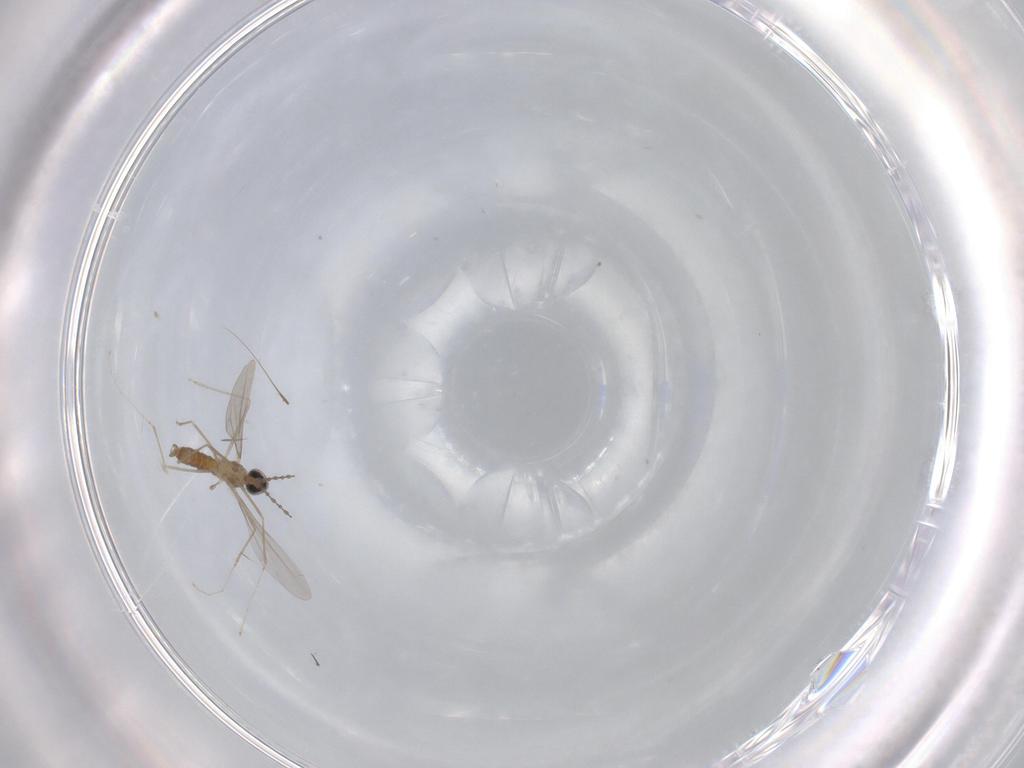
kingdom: Animalia
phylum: Arthropoda
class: Insecta
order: Diptera
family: Cecidomyiidae
